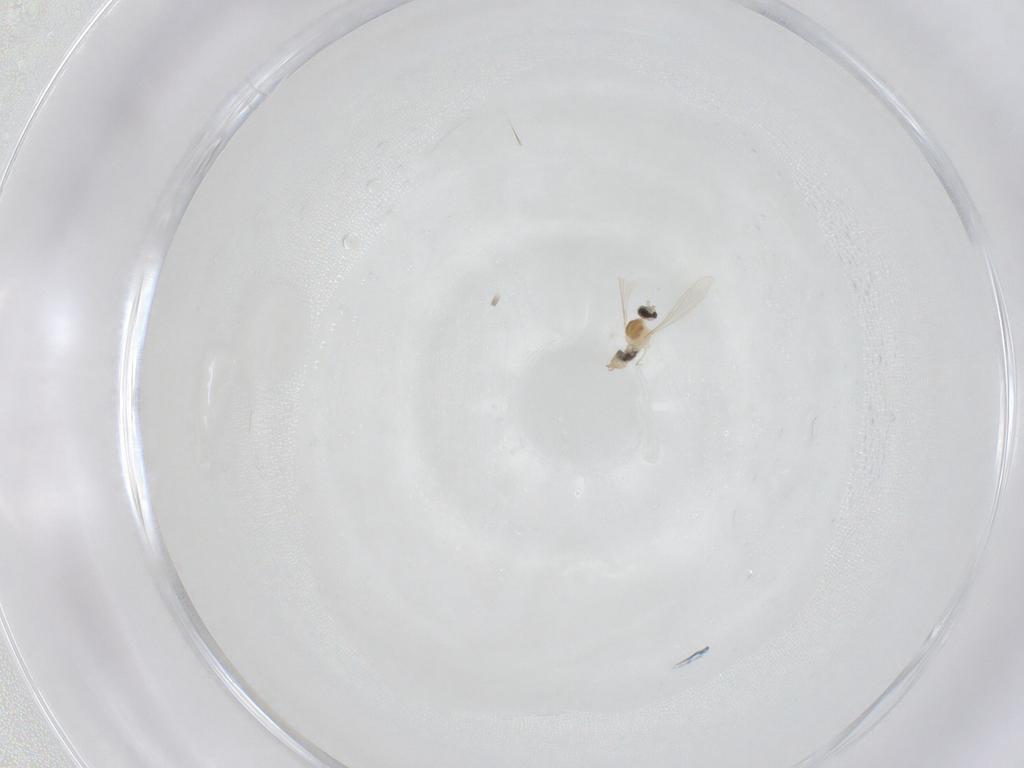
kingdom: Animalia
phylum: Arthropoda
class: Insecta
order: Diptera
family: Cecidomyiidae
